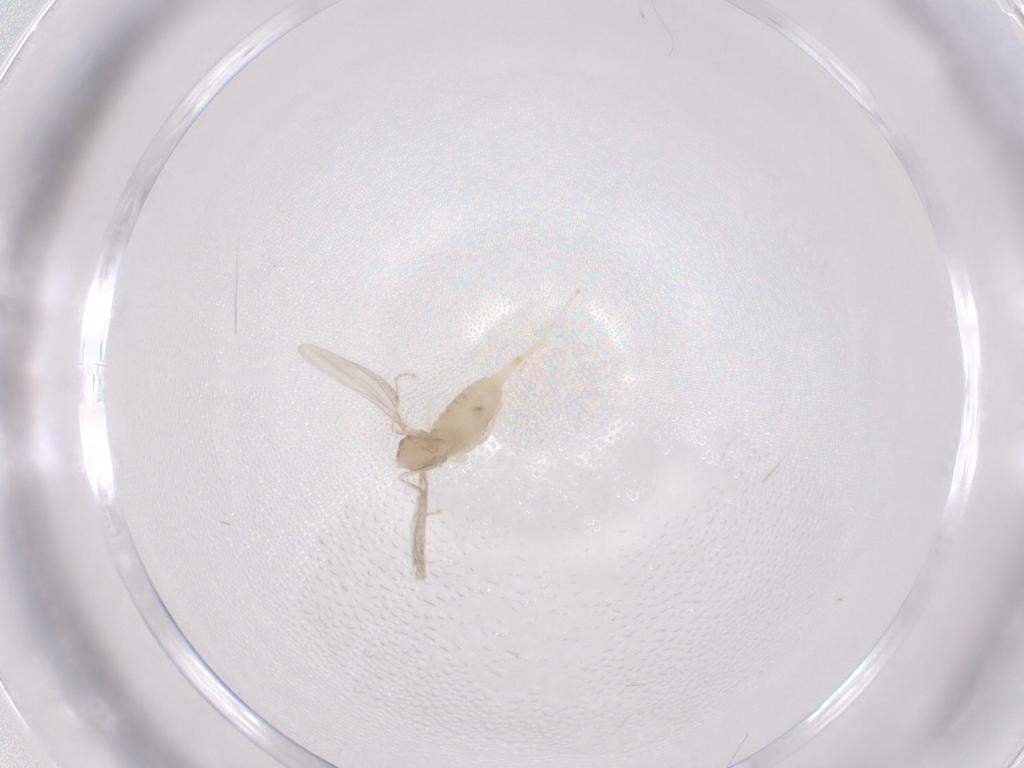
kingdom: Animalia
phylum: Arthropoda
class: Insecta
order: Diptera
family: Cecidomyiidae
